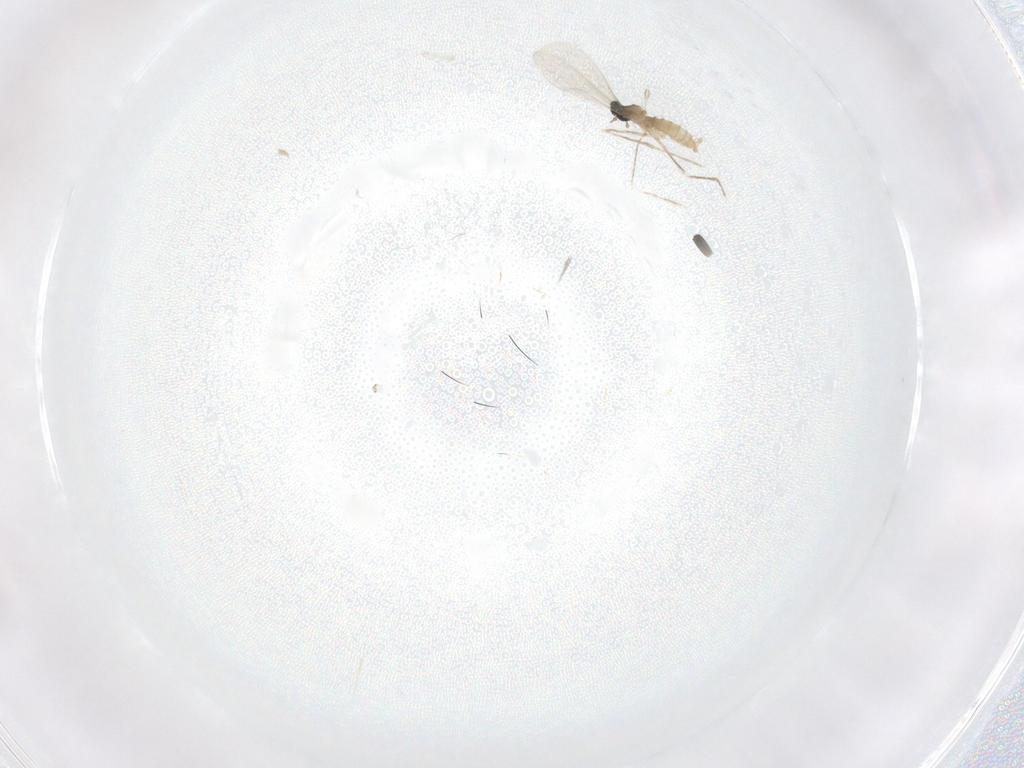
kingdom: Animalia
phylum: Arthropoda
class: Insecta
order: Diptera
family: Cecidomyiidae
